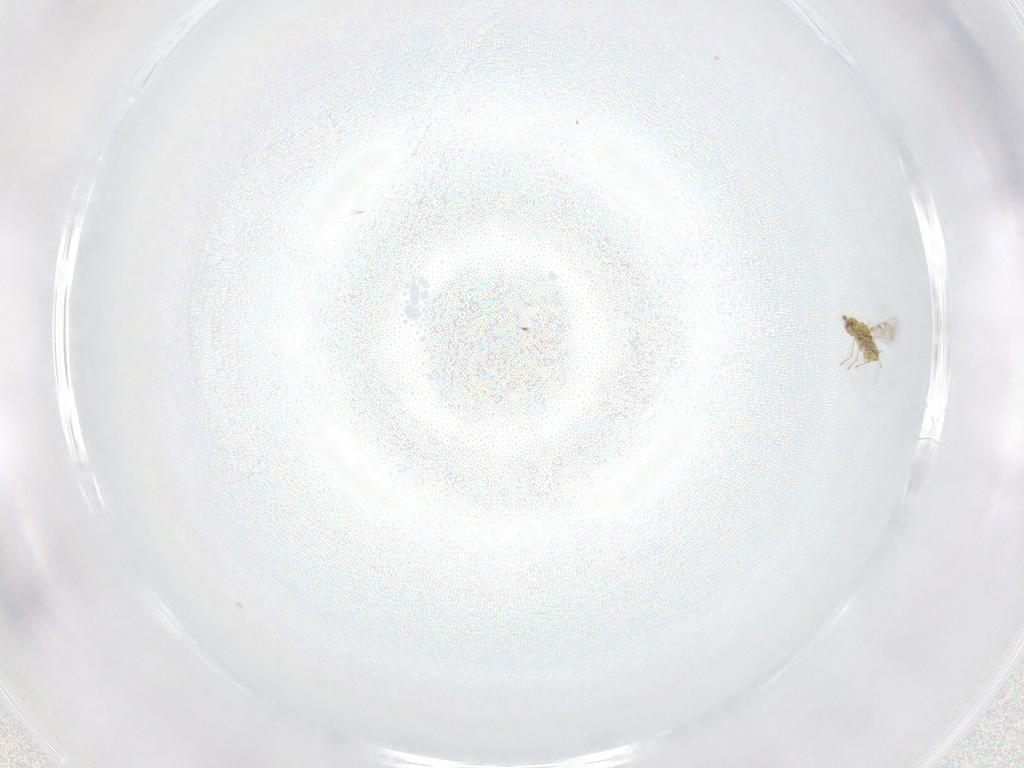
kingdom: Animalia
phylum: Arthropoda
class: Insecta
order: Hymenoptera
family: Eulophidae
